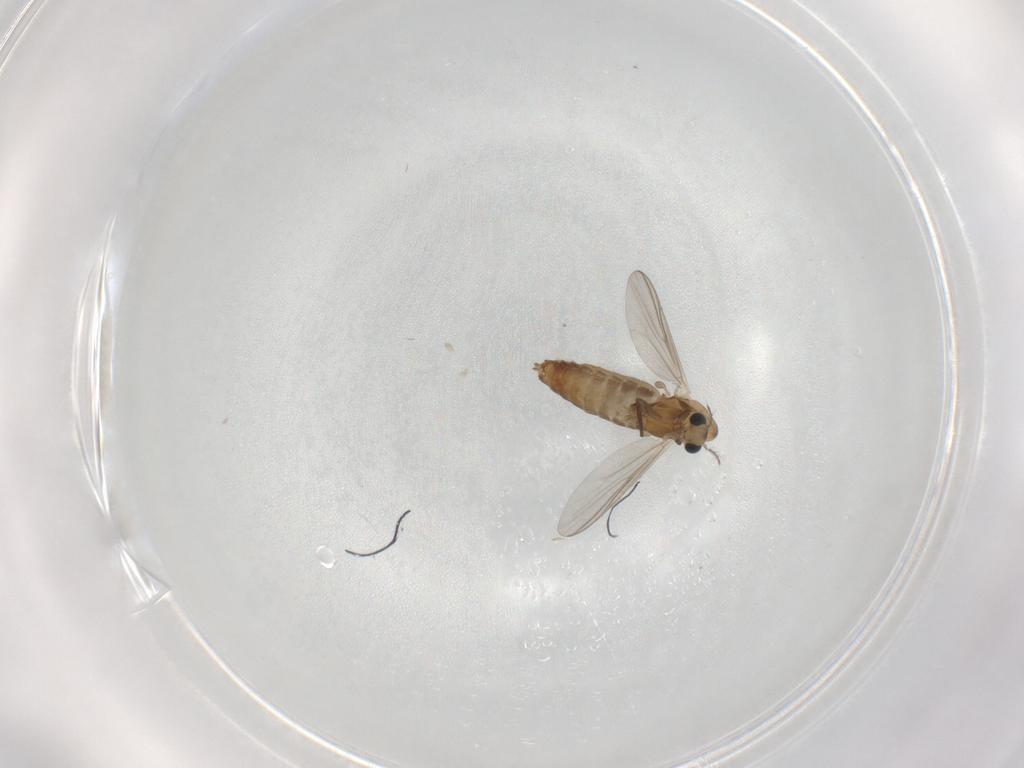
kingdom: Animalia
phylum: Arthropoda
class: Insecta
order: Diptera
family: Chironomidae
